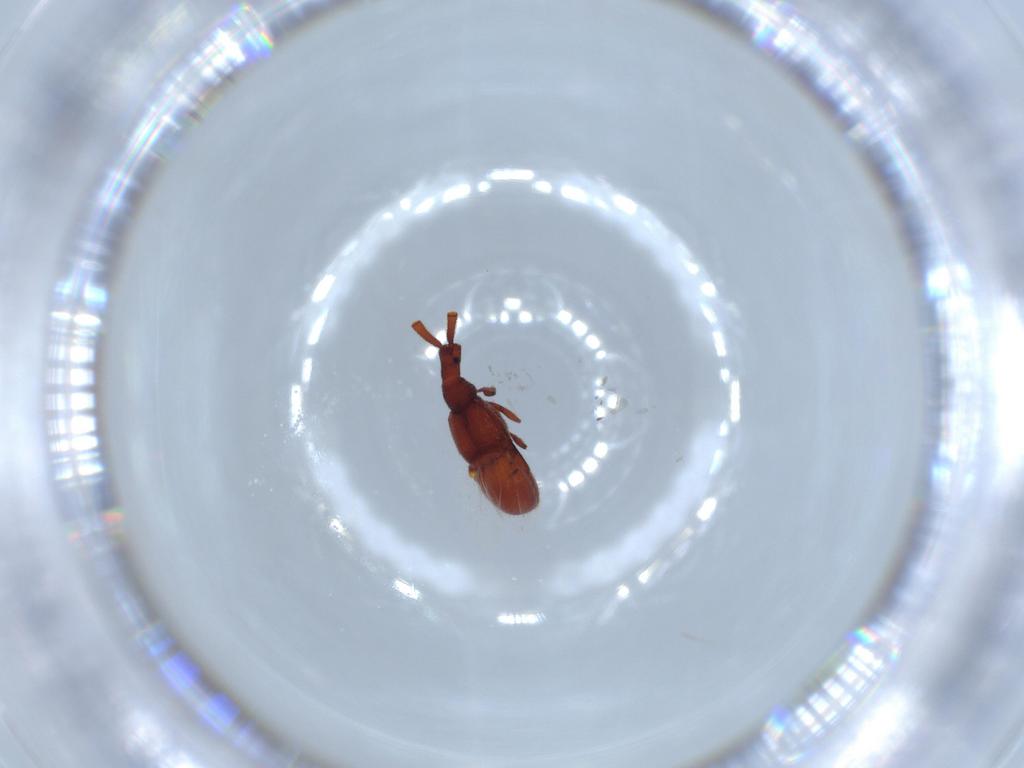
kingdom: Animalia
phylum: Arthropoda
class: Insecta
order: Coleoptera
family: Staphylinidae
